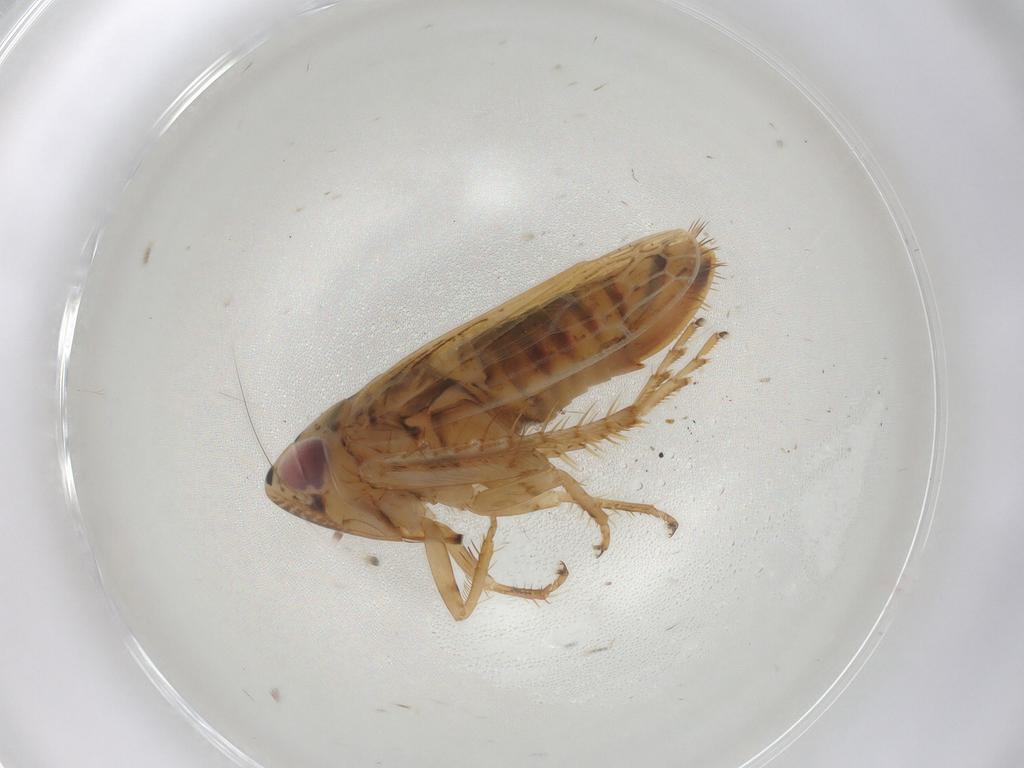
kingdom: Animalia
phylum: Arthropoda
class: Insecta
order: Hemiptera
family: Cicadellidae
